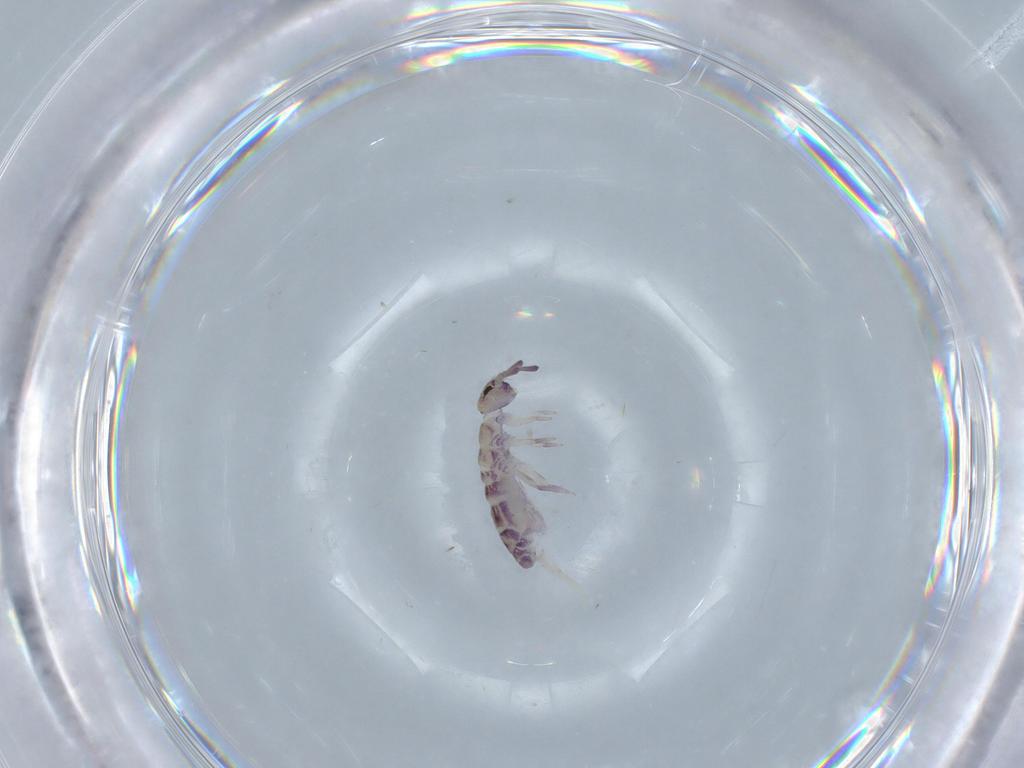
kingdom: Animalia
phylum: Arthropoda
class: Collembola
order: Entomobryomorpha
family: Isotomidae
